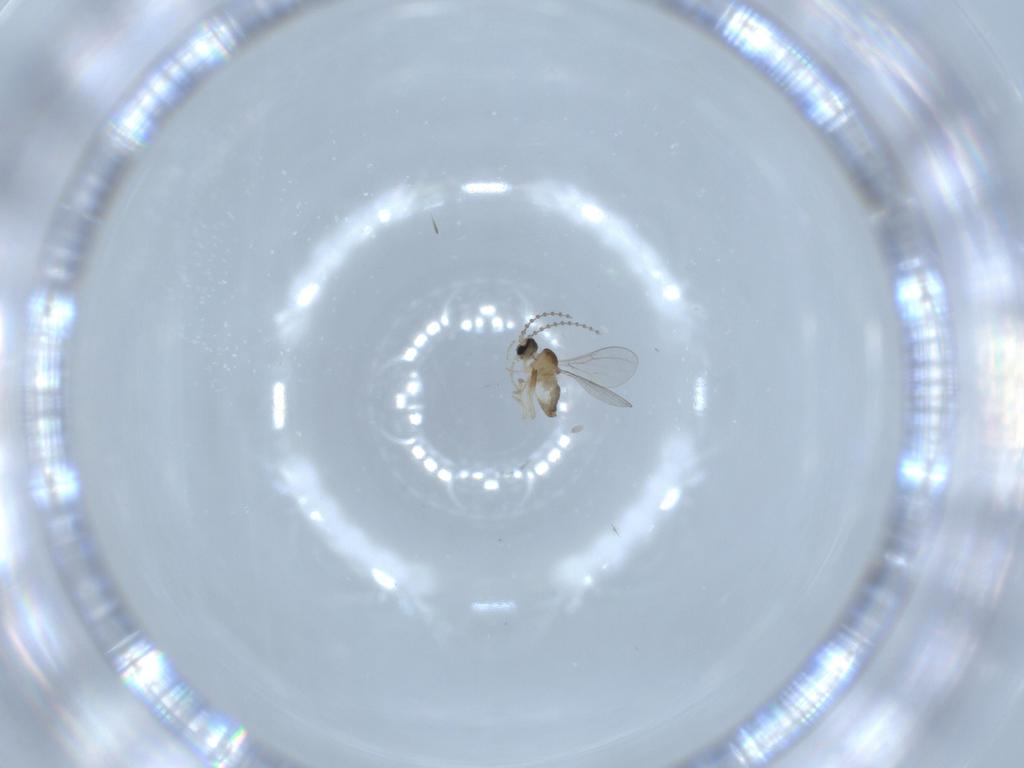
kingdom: Animalia
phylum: Arthropoda
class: Insecta
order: Diptera
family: Cecidomyiidae
